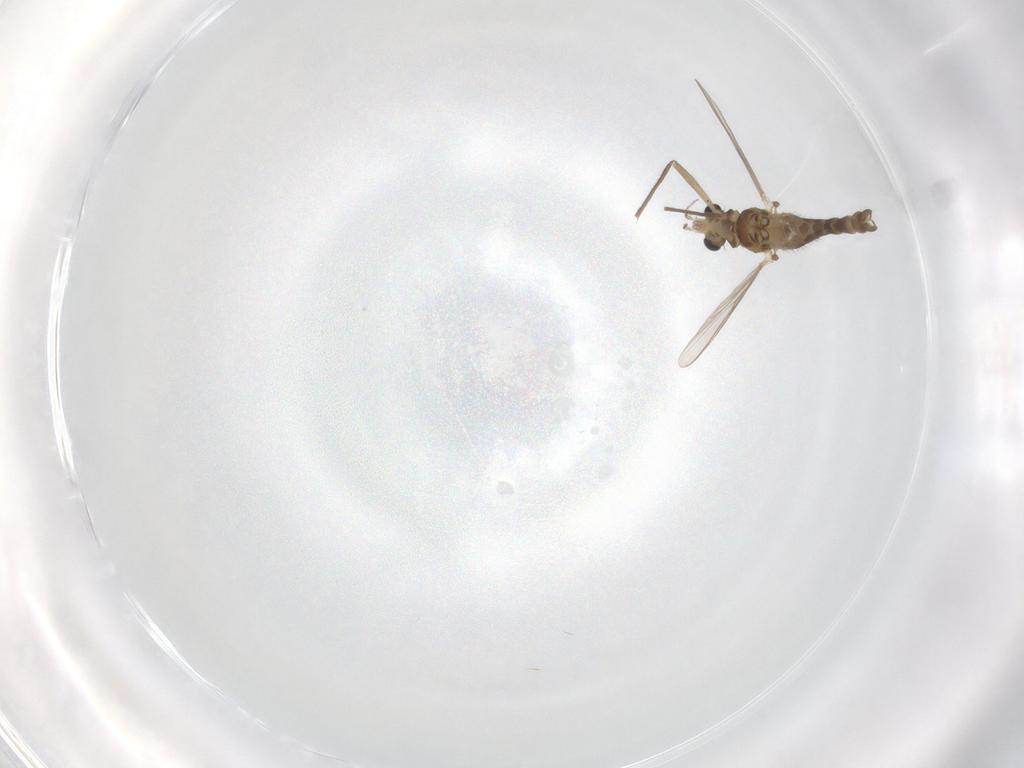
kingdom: Animalia
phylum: Arthropoda
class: Insecta
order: Diptera
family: Chironomidae
